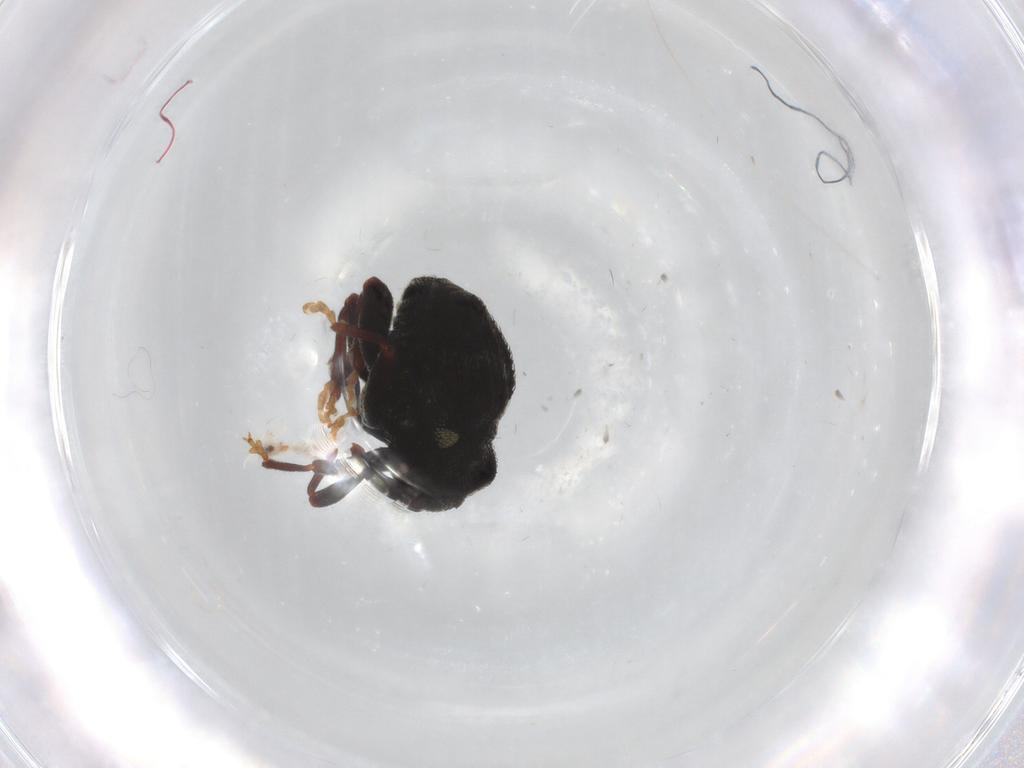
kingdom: Animalia
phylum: Arthropoda
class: Insecta
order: Coleoptera
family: Curculionidae
